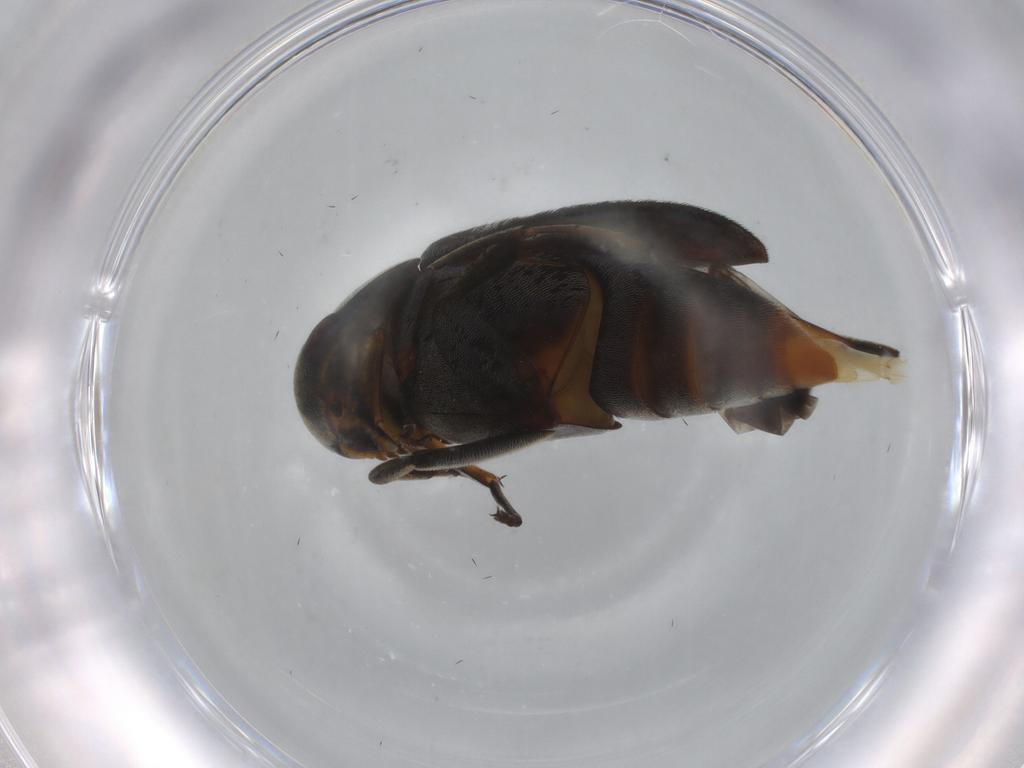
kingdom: Animalia
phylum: Arthropoda
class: Insecta
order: Coleoptera
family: Mordellidae
